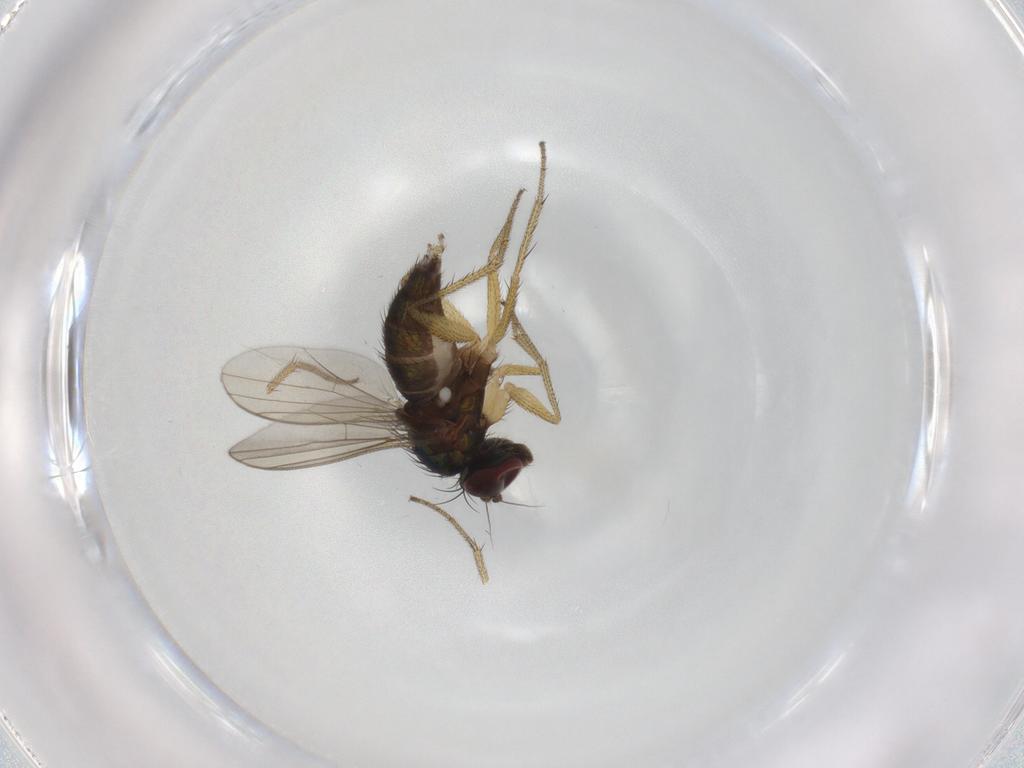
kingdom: Animalia
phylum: Arthropoda
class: Insecta
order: Diptera
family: Dolichopodidae
